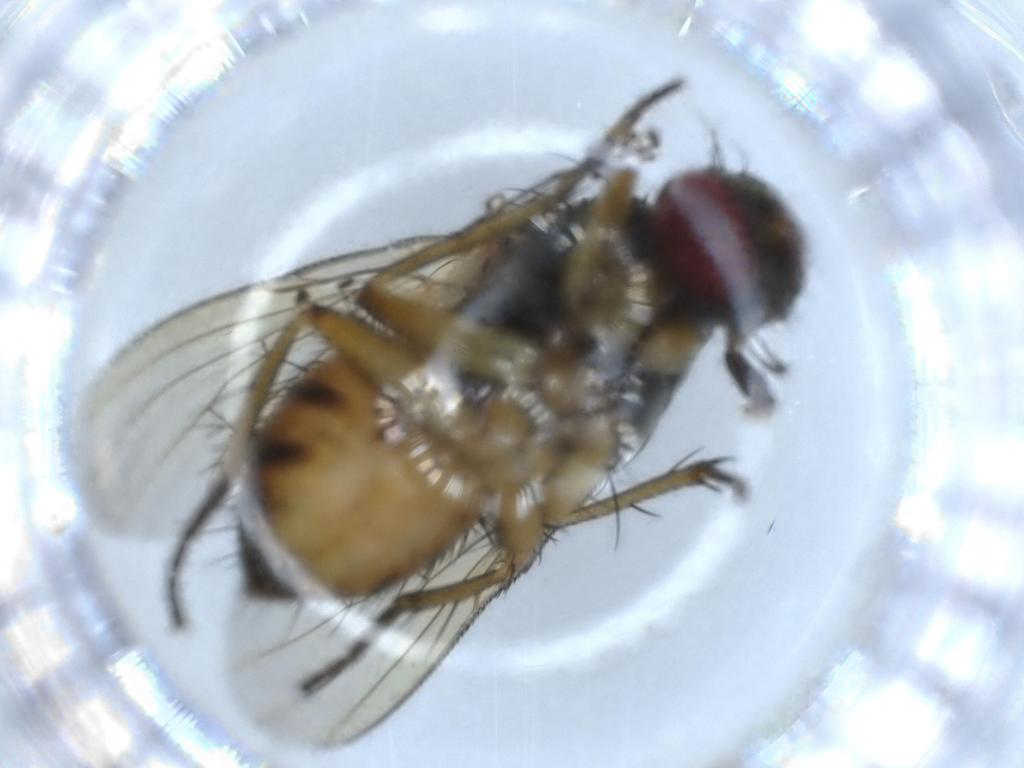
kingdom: Animalia
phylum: Arthropoda
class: Insecta
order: Diptera
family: Muscidae
